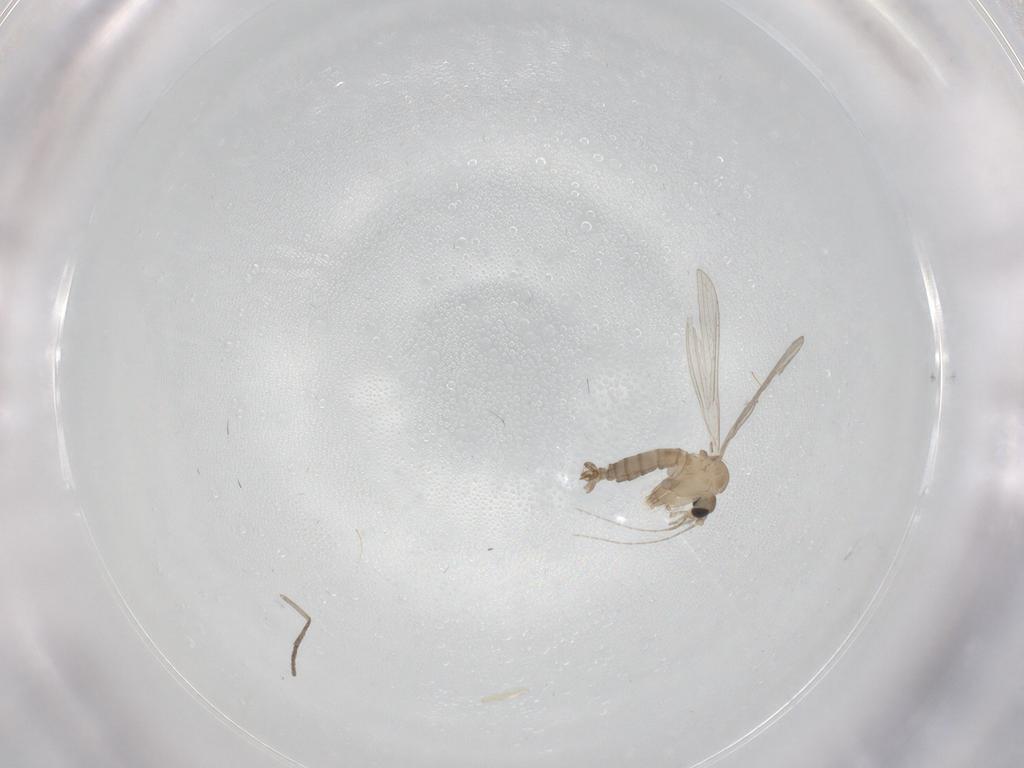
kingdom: Animalia
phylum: Arthropoda
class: Insecta
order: Diptera
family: Psychodidae
